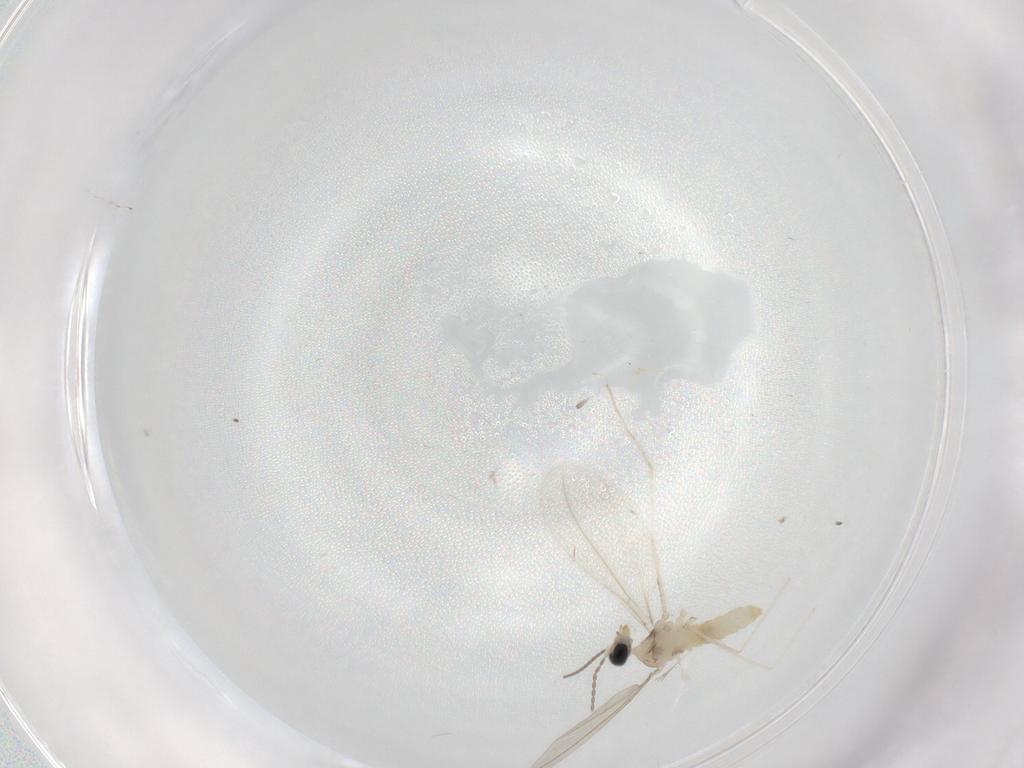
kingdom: Animalia
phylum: Arthropoda
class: Insecta
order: Diptera
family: Cecidomyiidae
